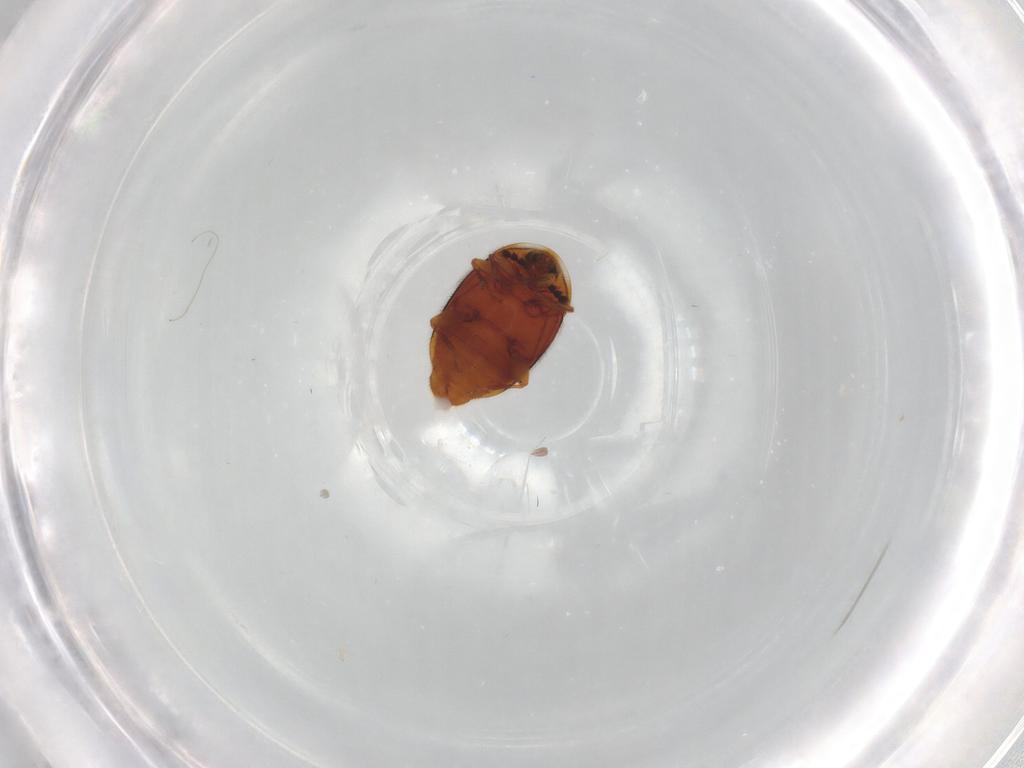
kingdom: Animalia
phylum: Arthropoda
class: Insecta
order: Coleoptera
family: Corylophidae
